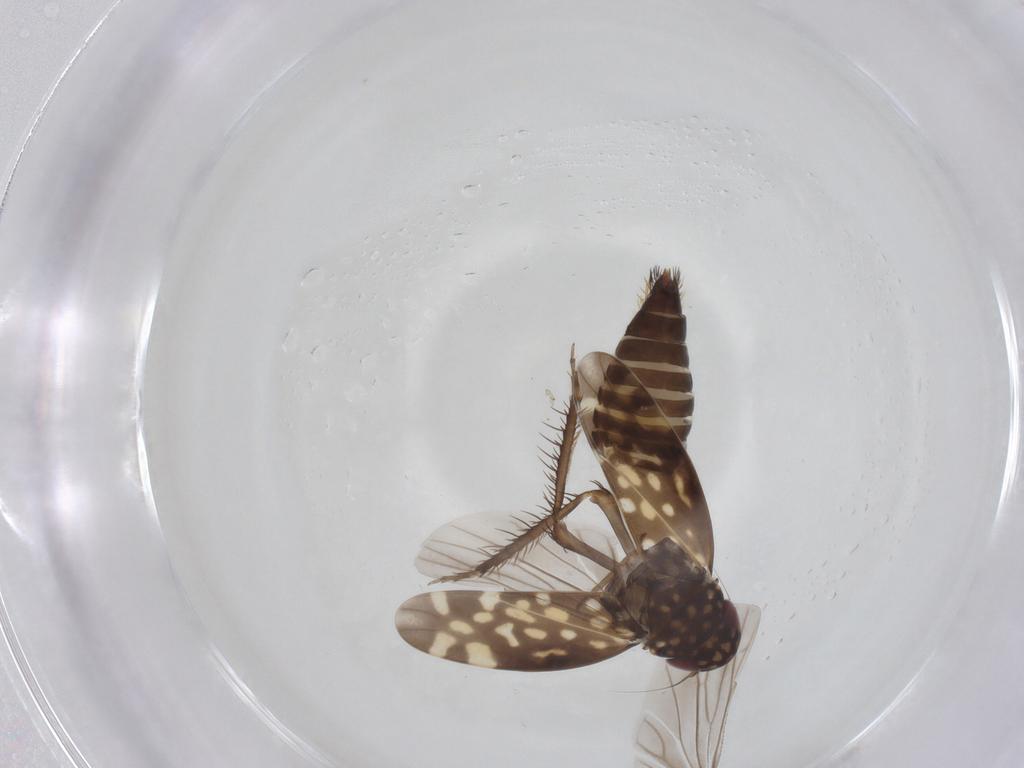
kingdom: Animalia
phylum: Arthropoda
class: Insecta
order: Hemiptera
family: Cicadellidae
